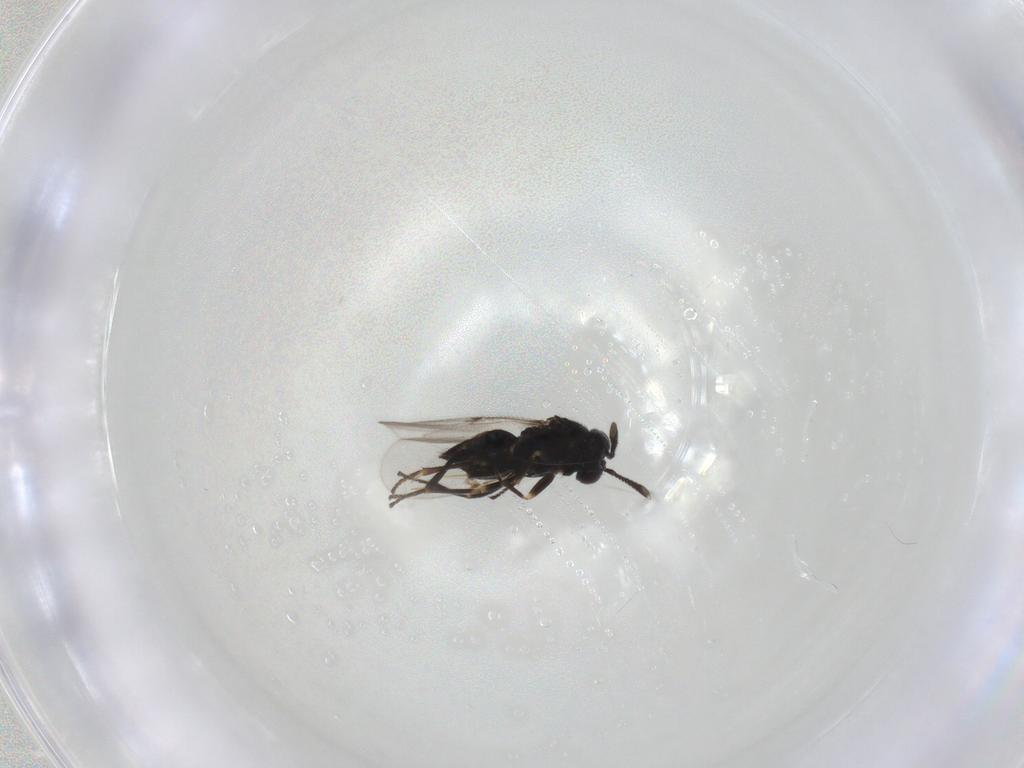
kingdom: Animalia
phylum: Arthropoda
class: Insecta
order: Hymenoptera
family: Encyrtidae
